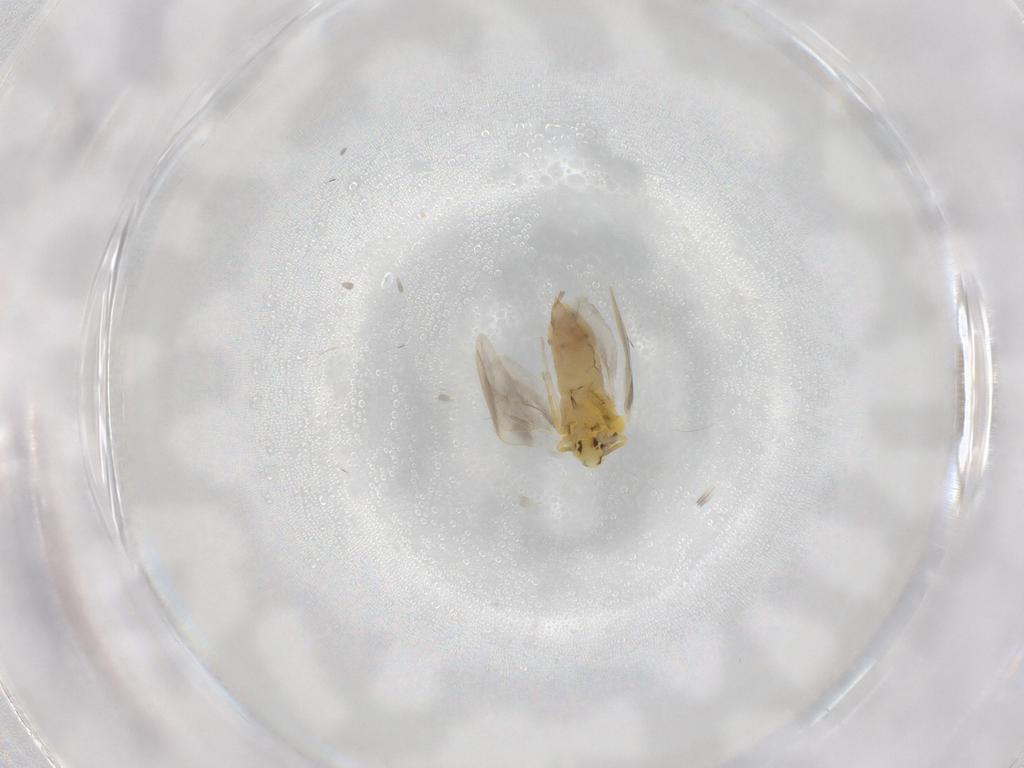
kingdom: Animalia
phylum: Arthropoda
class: Insecta
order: Hemiptera
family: Aleyrodidae
